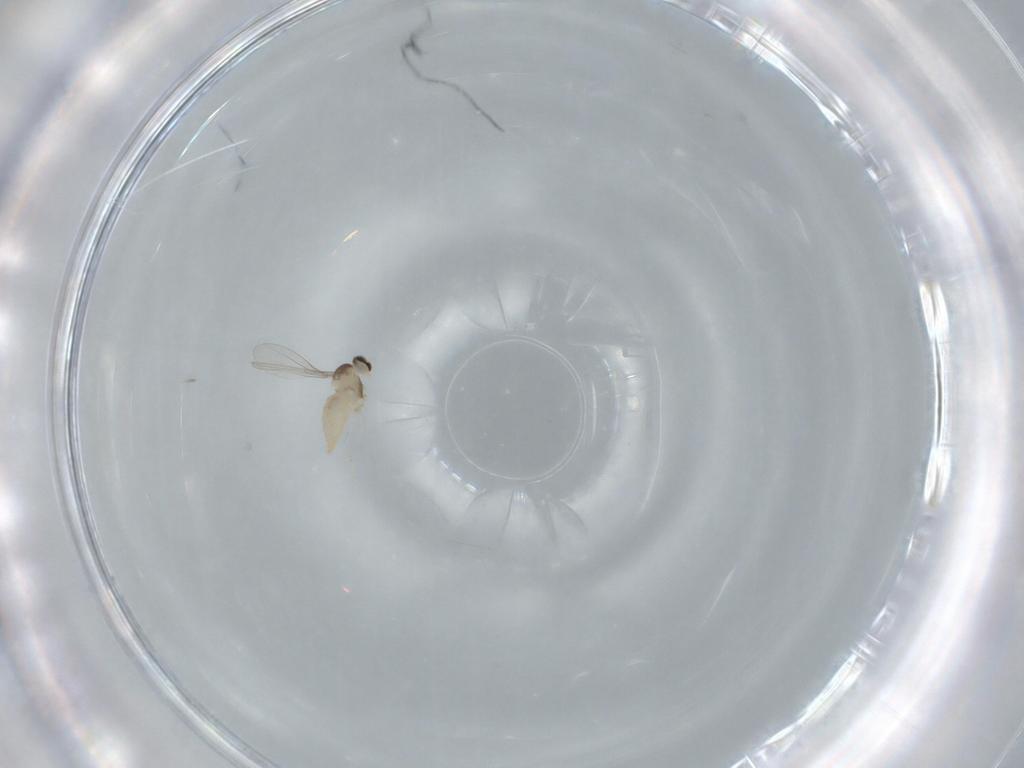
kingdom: Animalia
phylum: Arthropoda
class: Insecta
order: Diptera
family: Cecidomyiidae
